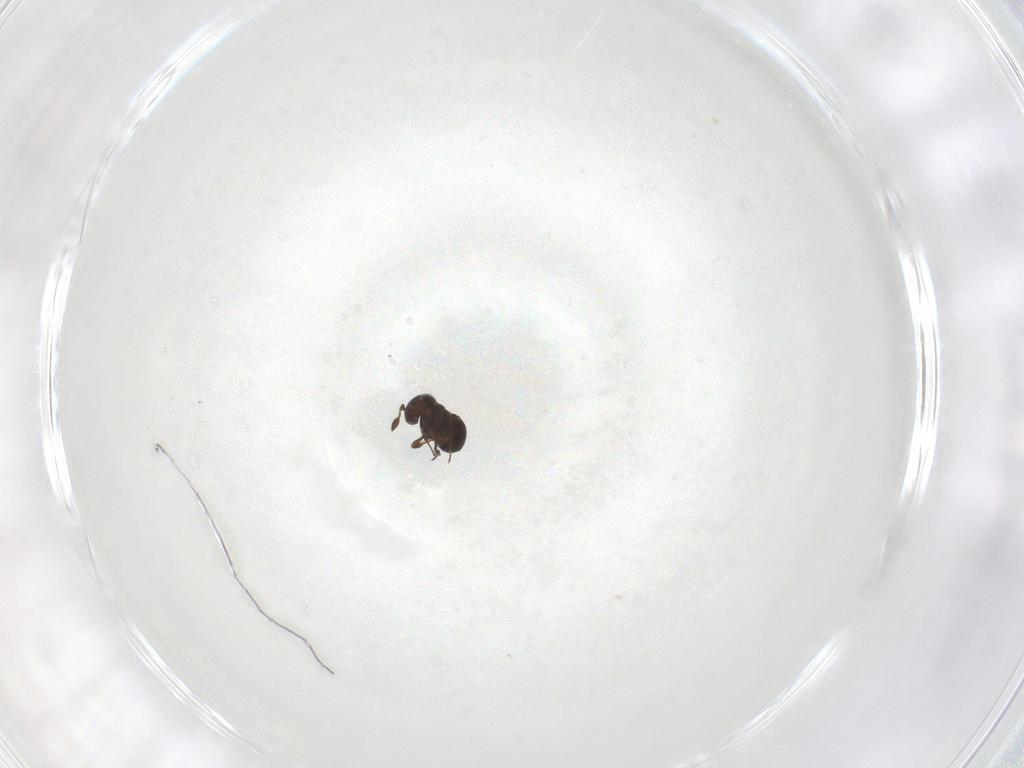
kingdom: Animalia
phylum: Arthropoda
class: Insecta
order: Hymenoptera
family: Scelionidae
